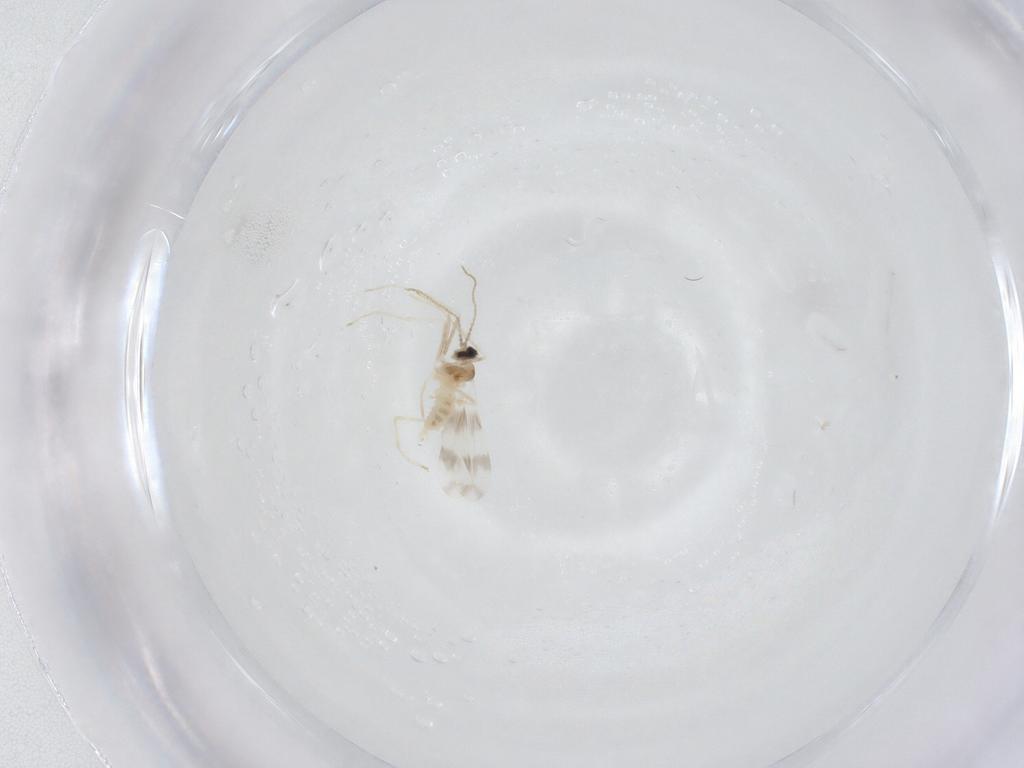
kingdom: Animalia
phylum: Arthropoda
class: Insecta
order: Diptera
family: Cecidomyiidae
